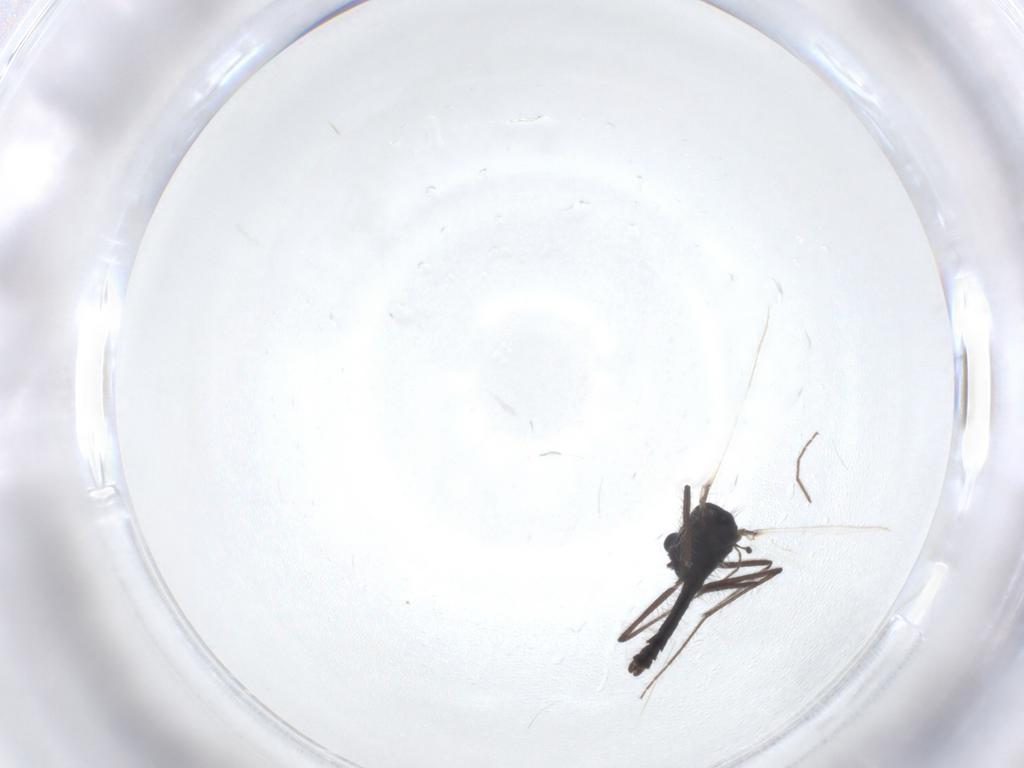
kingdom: Animalia
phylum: Arthropoda
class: Insecta
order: Diptera
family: Chironomidae
